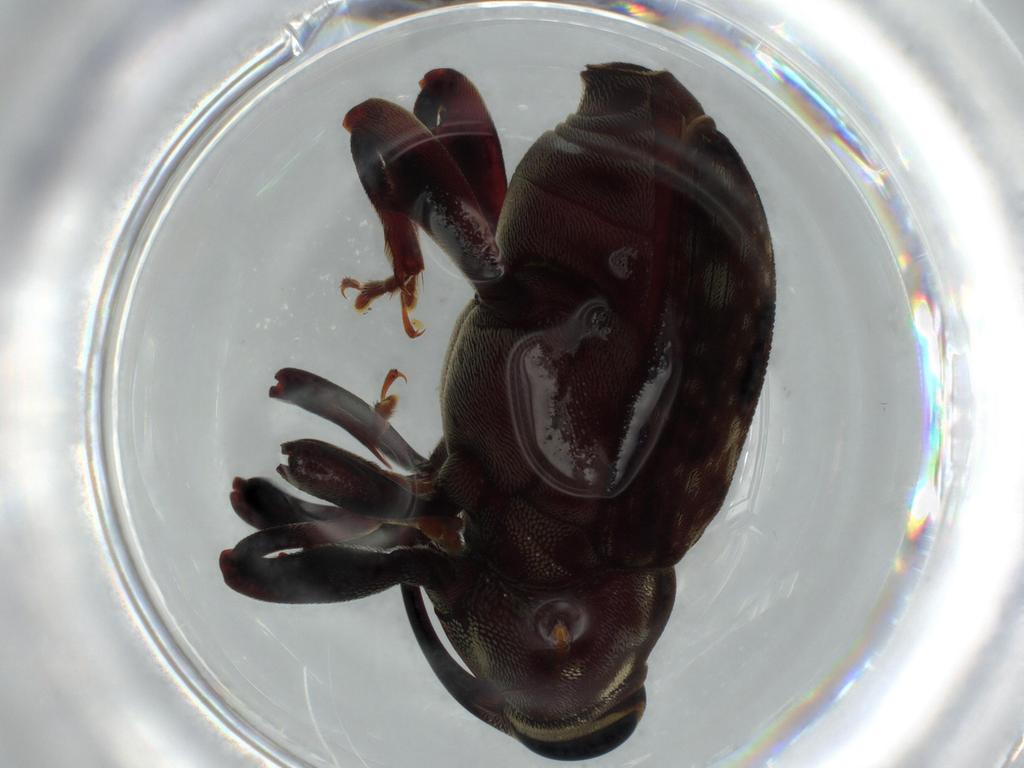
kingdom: Animalia
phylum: Arthropoda
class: Insecta
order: Coleoptera
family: Curculionidae
